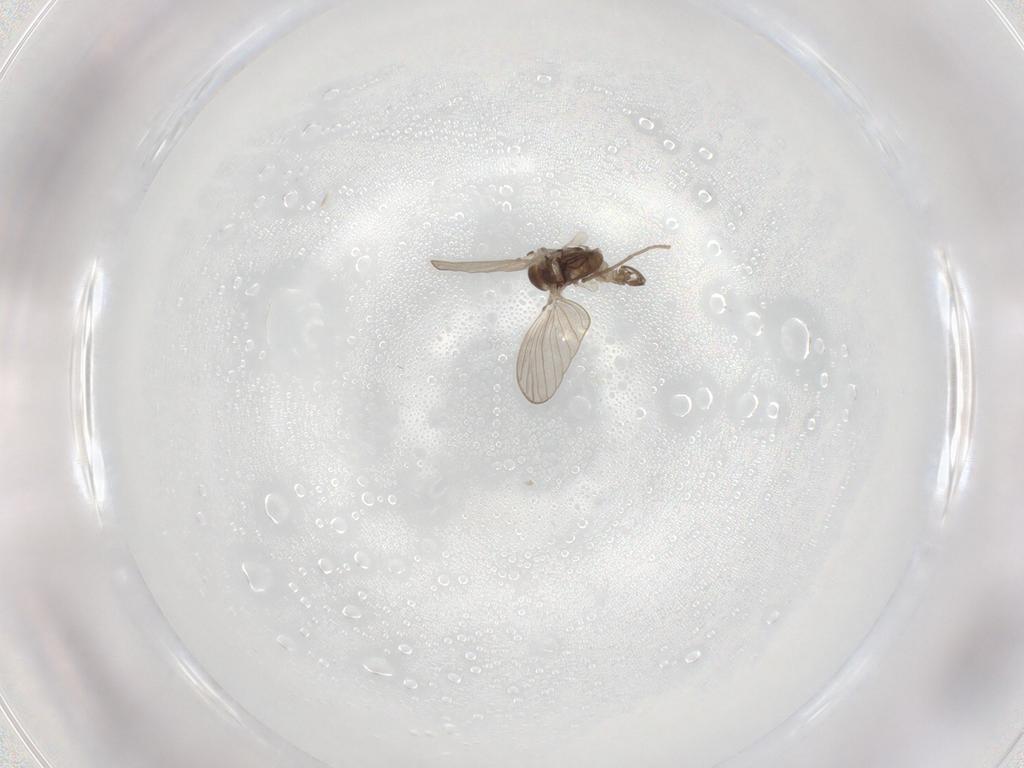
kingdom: Animalia
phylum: Arthropoda
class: Insecta
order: Diptera
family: Psychodidae
